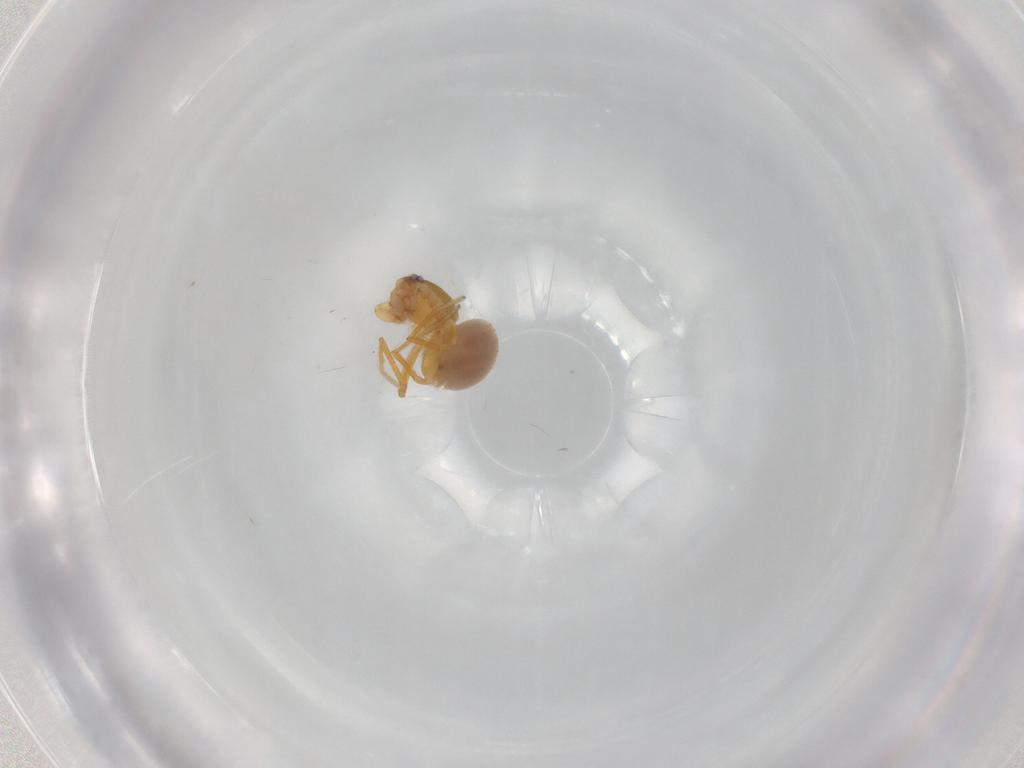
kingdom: Animalia
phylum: Arthropoda
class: Arachnida
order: Araneae
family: Oonopidae
